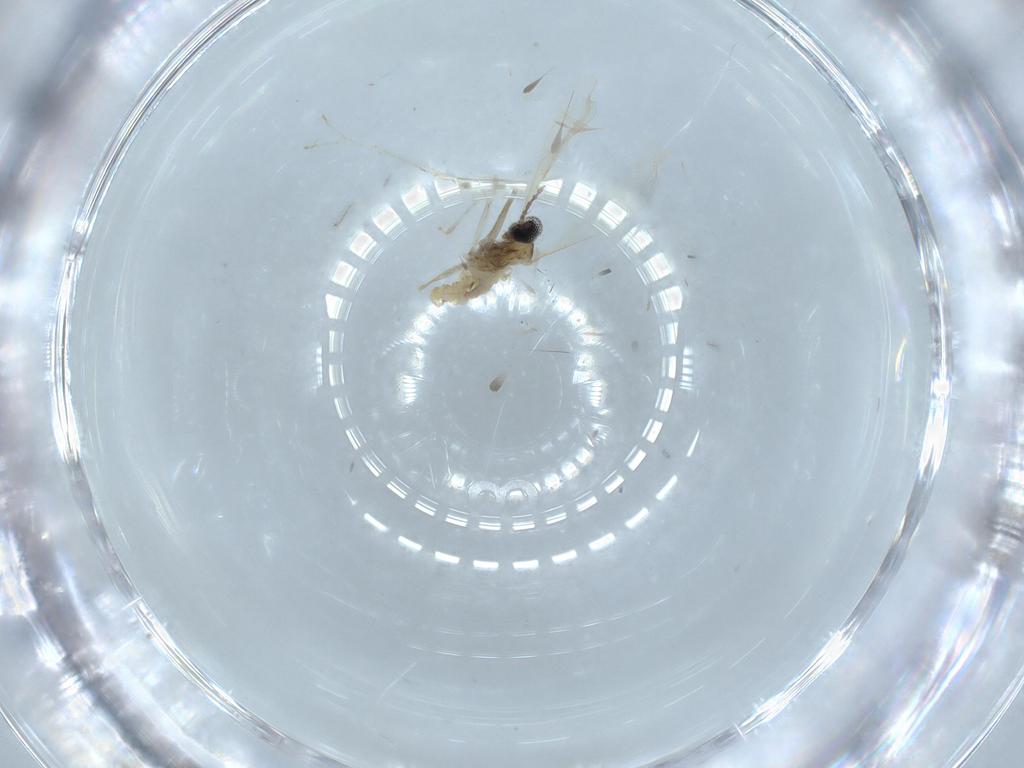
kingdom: Animalia
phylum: Arthropoda
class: Insecta
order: Diptera
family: Cecidomyiidae
